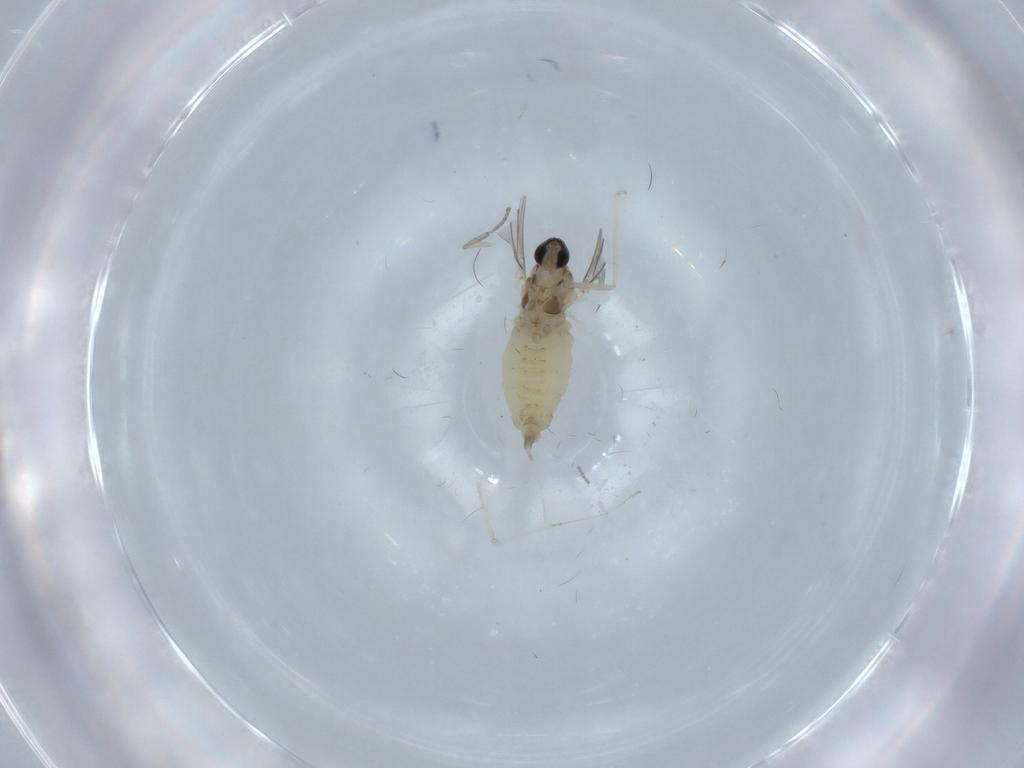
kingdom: Animalia
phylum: Arthropoda
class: Insecta
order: Diptera
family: Cecidomyiidae
